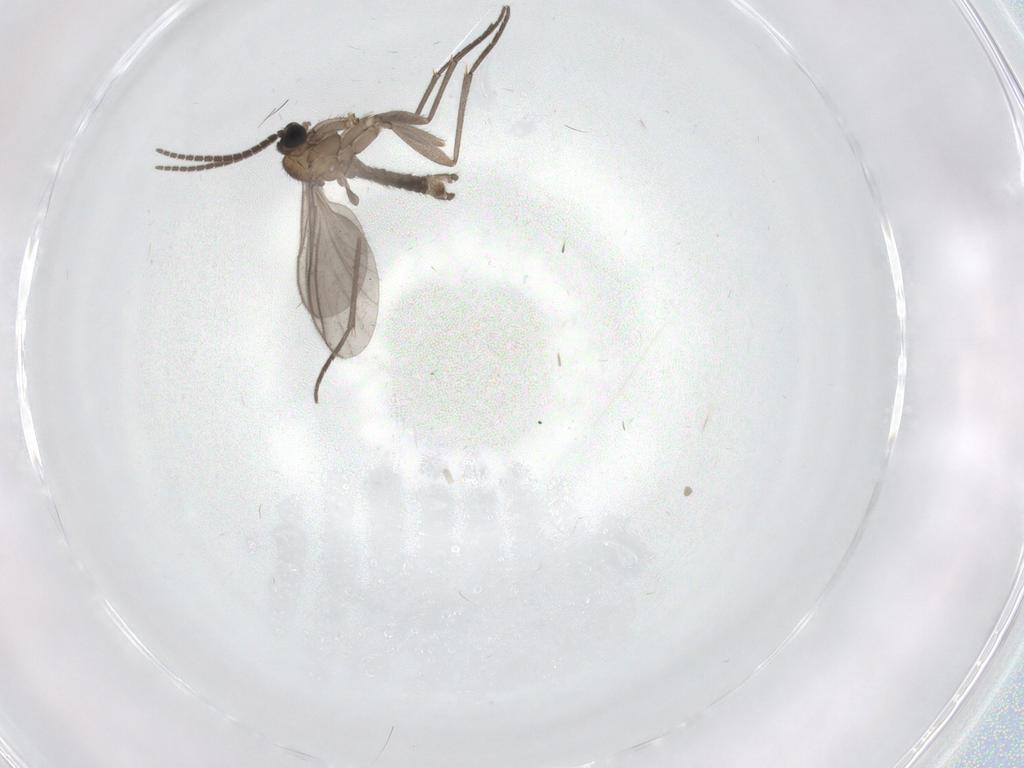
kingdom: Animalia
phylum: Arthropoda
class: Insecta
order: Diptera
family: Sciaridae
